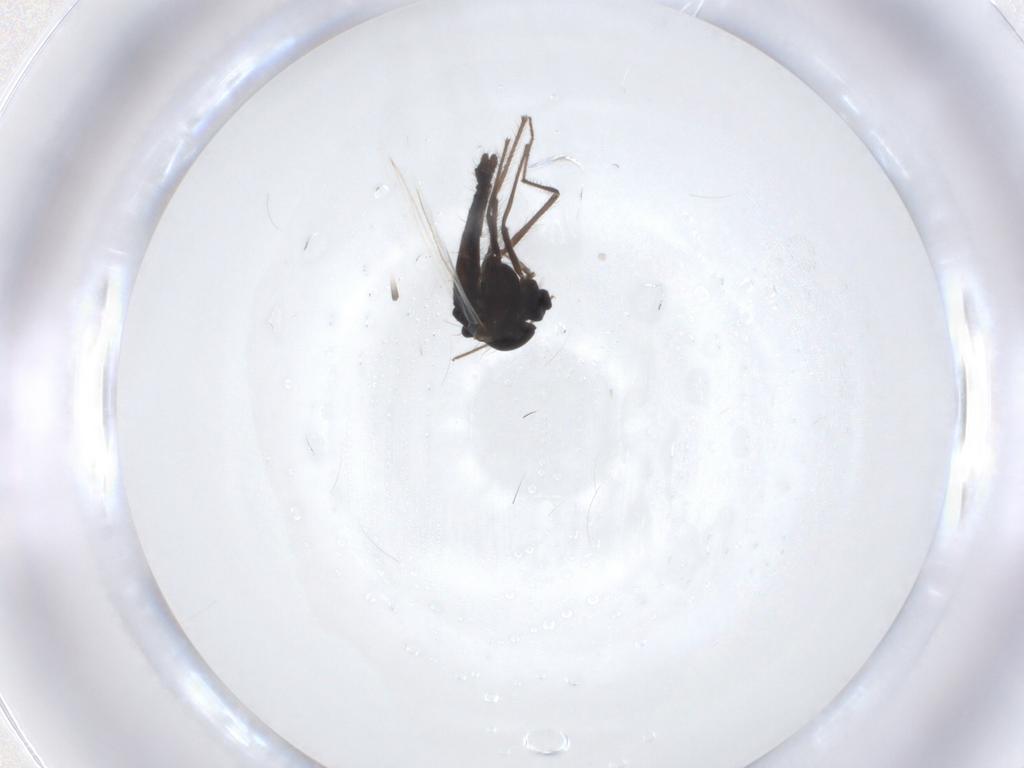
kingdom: Animalia
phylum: Arthropoda
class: Insecta
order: Diptera
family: Chironomidae
